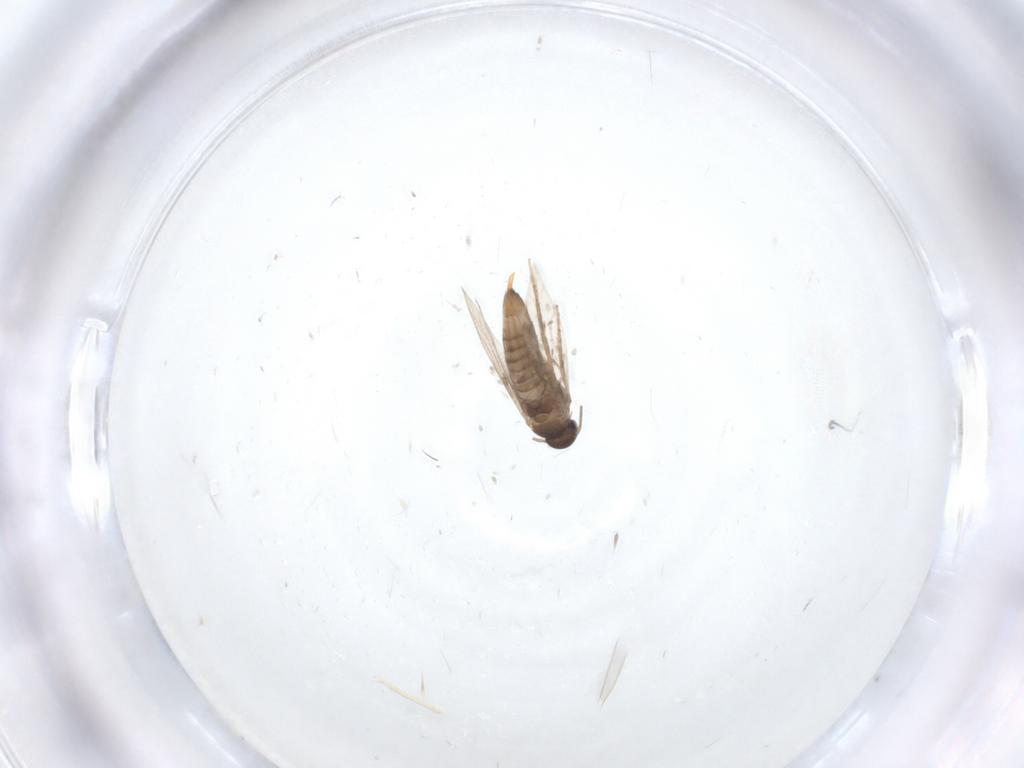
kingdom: Animalia
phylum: Arthropoda
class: Insecta
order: Lepidoptera
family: Heliozelidae
